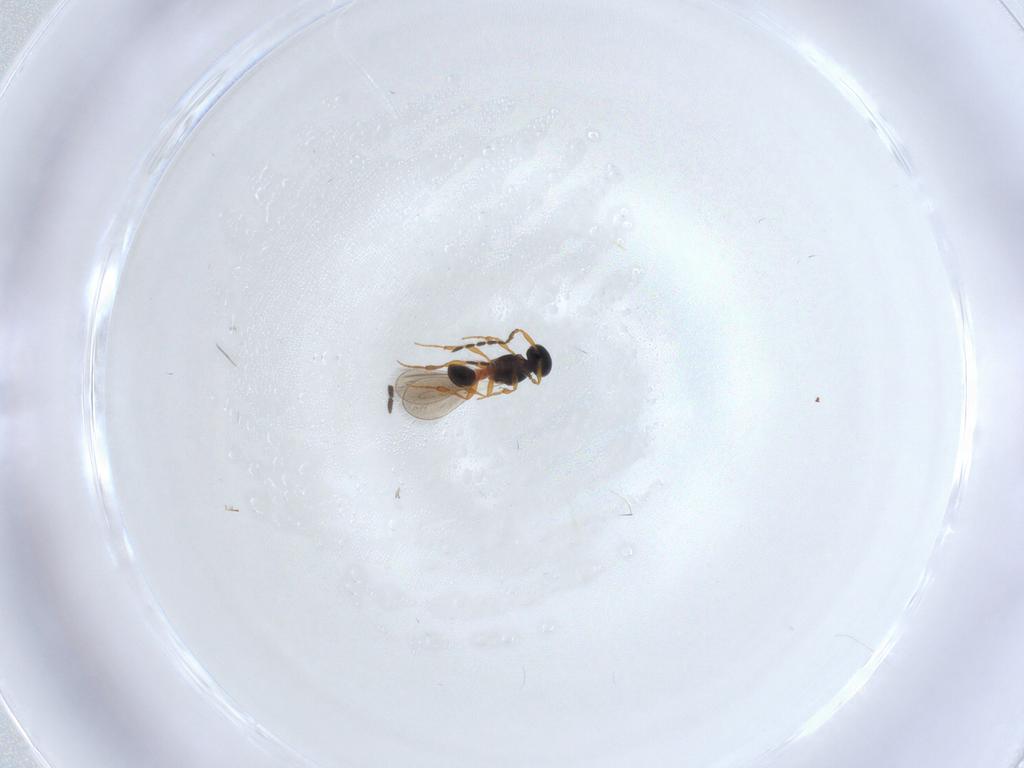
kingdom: Animalia
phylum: Arthropoda
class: Insecta
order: Hymenoptera
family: Platygastridae
